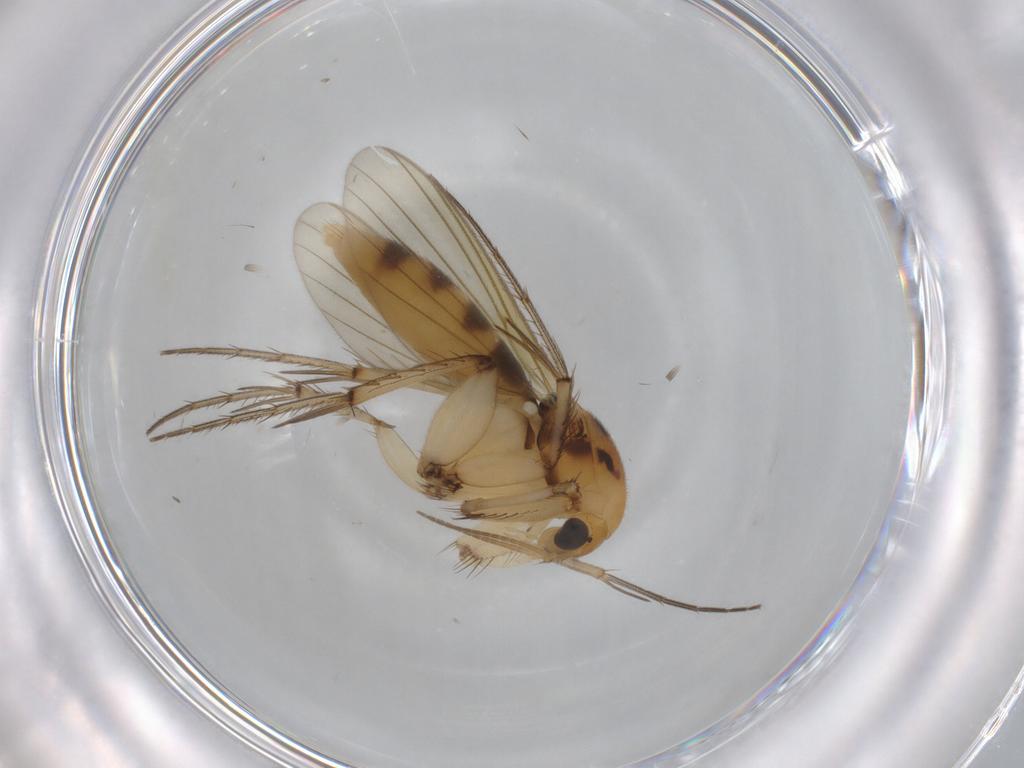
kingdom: Animalia
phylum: Arthropoda
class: Insecta
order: Diptera
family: Mycetophilidae
